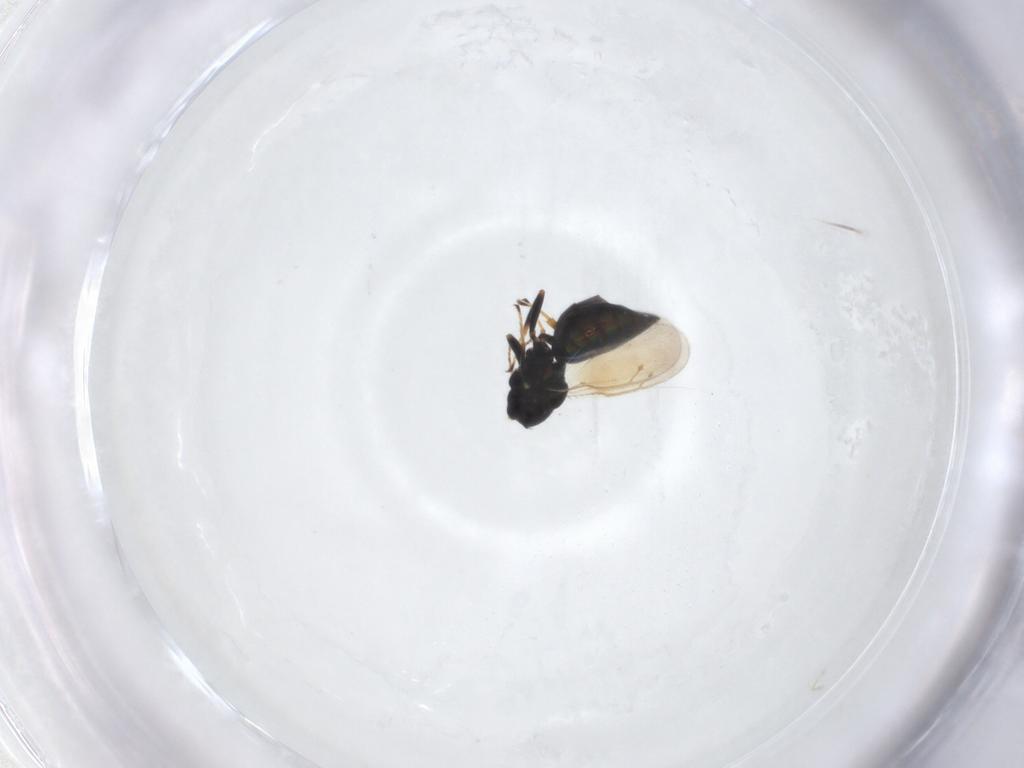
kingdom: Animalia
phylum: Arthropoda
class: Insecta
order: Hymenoptera
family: Pteromalidae
